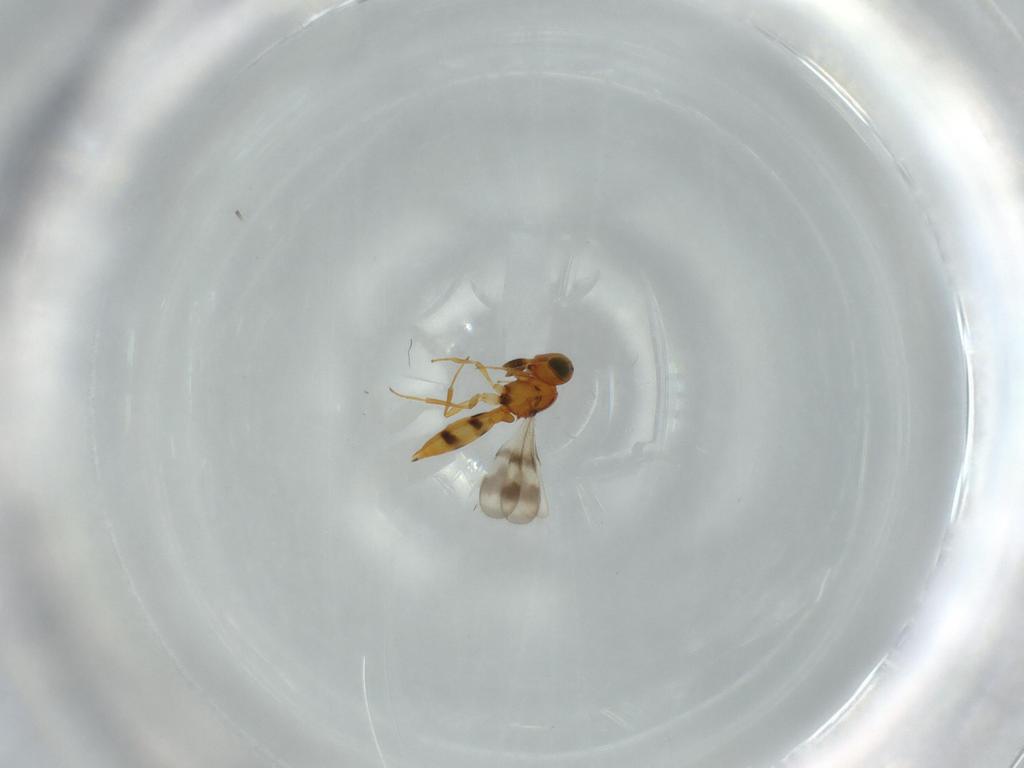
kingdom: Animalia
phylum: Arthropoda
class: Insecta
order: Hymenoptera
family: Scelionidae
